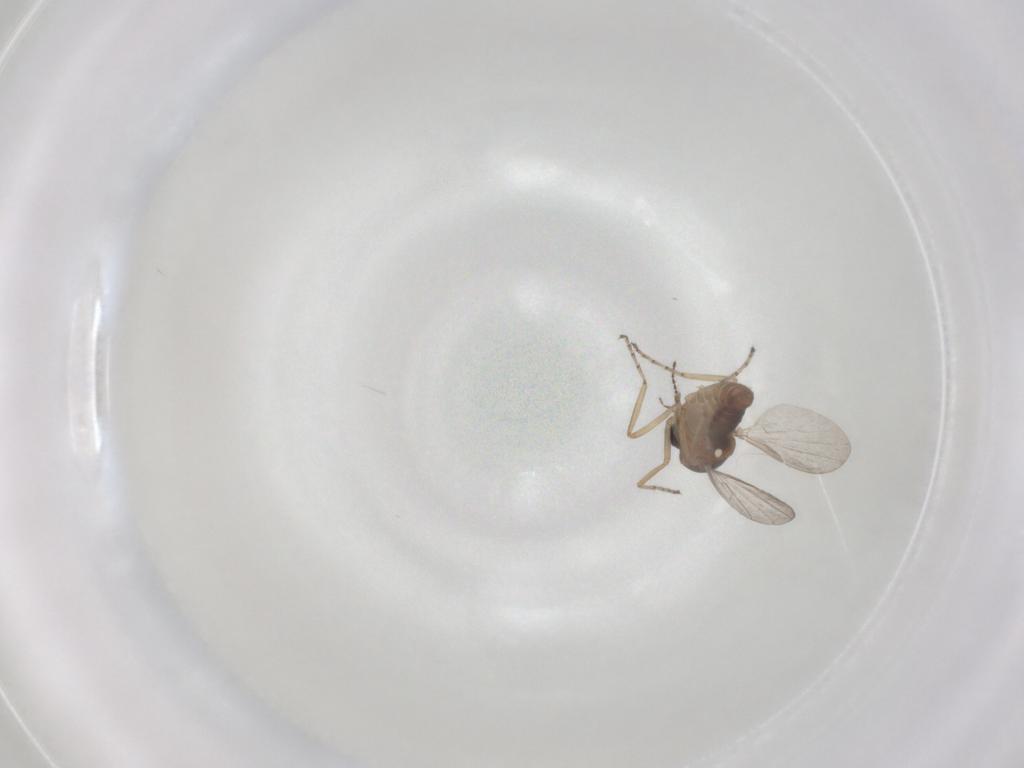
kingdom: Animalia
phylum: Arthropoda
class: Insecta
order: Diptera
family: Ceratopogonidae
